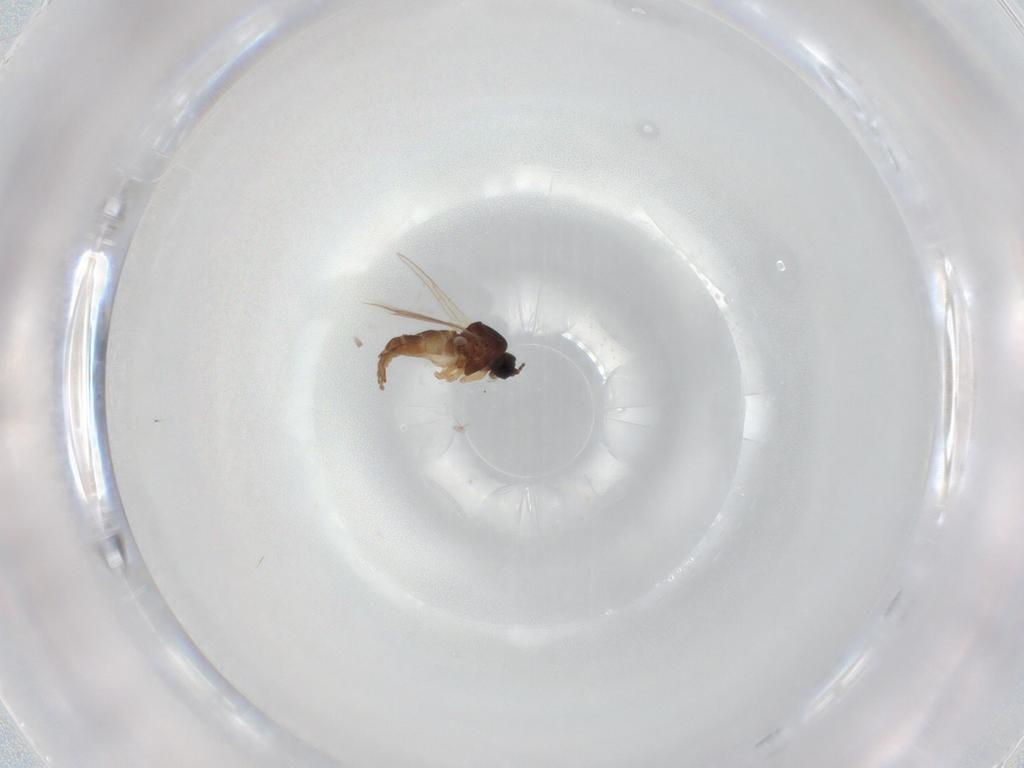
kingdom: Animalia
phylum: Arthropoda
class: Insecta
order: Diptera
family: Sciaridae
